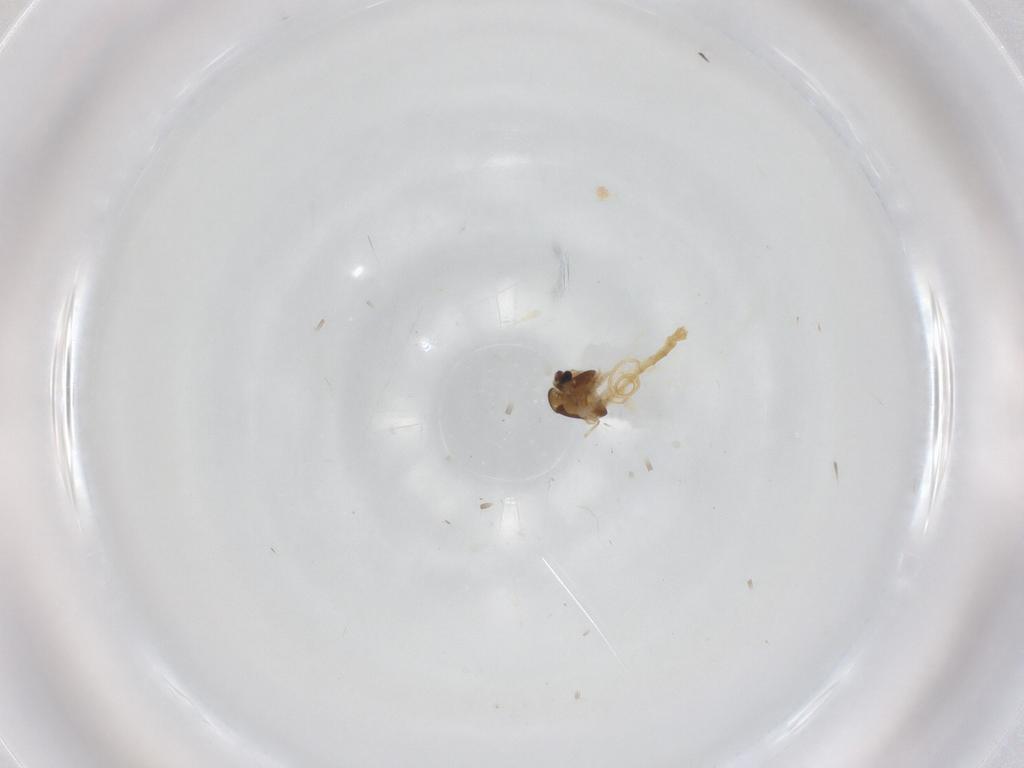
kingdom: Animalia
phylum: Arthropoda
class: Insecta
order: Diptera
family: Chironomidae
